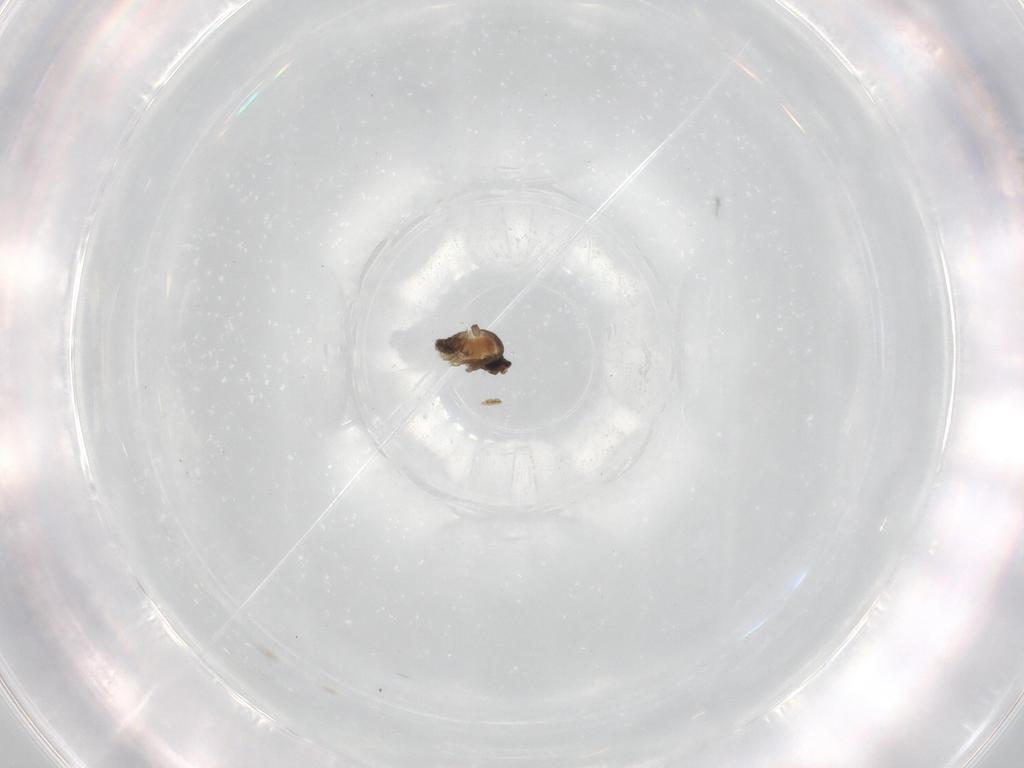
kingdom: Animalia
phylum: Arthropoda
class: Insecta
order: Diptera
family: Cecidomyiidae
